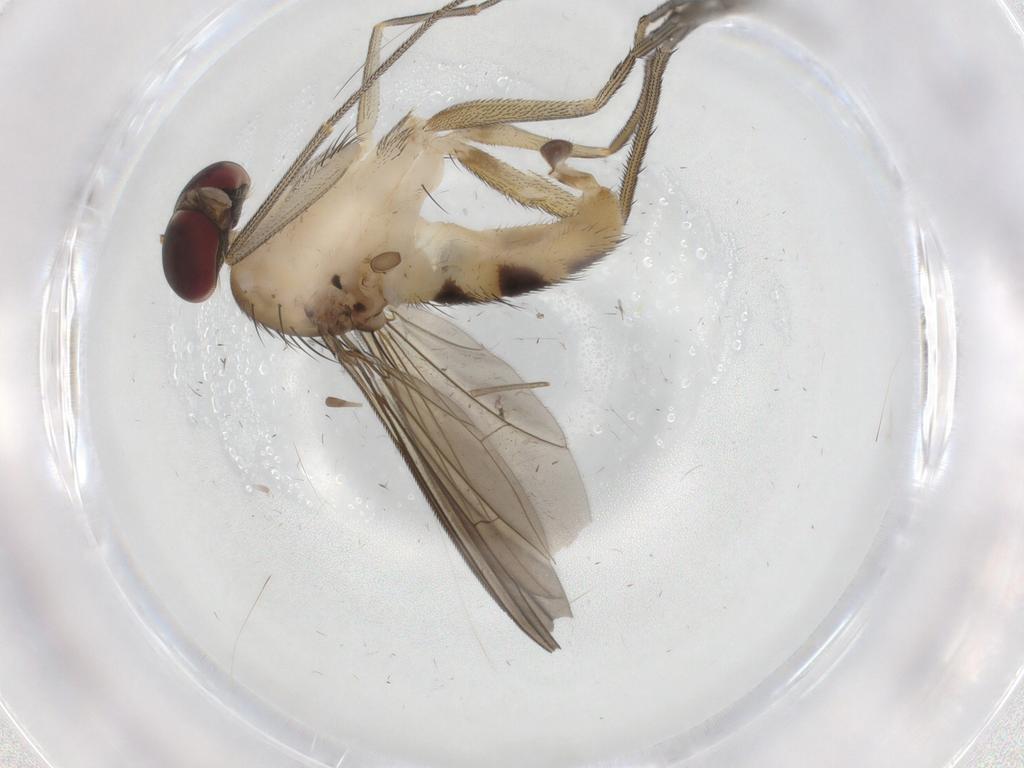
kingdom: Animalia
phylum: Arthropoda
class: Insecta
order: Diptera
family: Dolichopodidae
